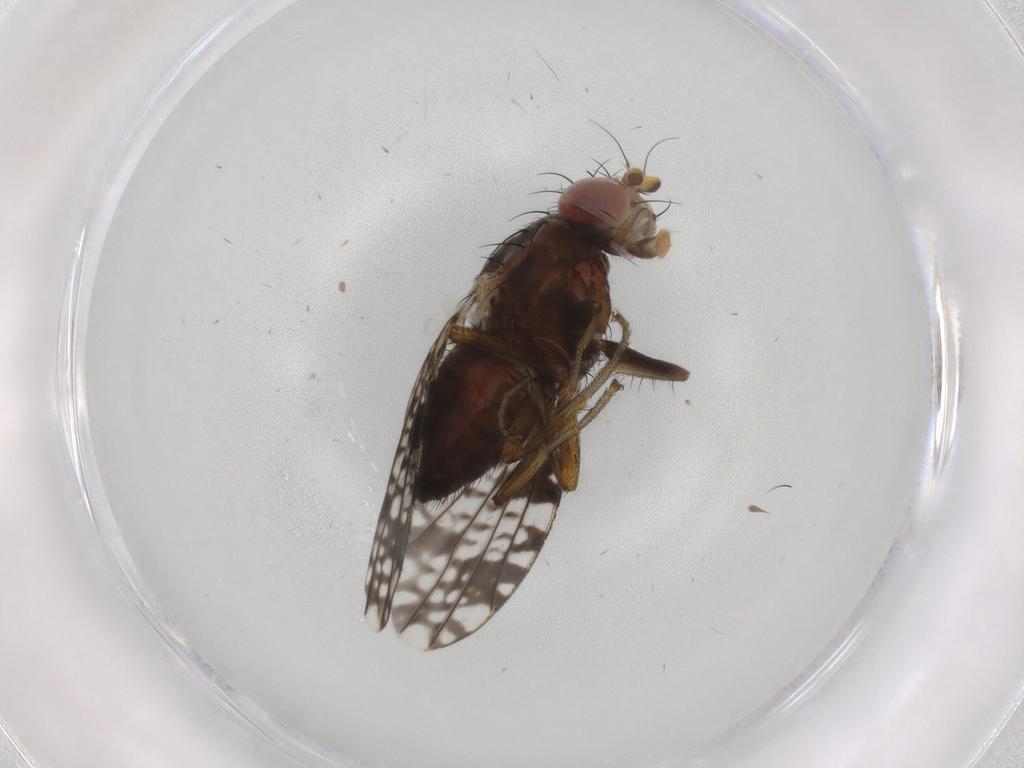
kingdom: Animalia
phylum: Arthropoda
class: Insecta
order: Diptera
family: Tephritidae
